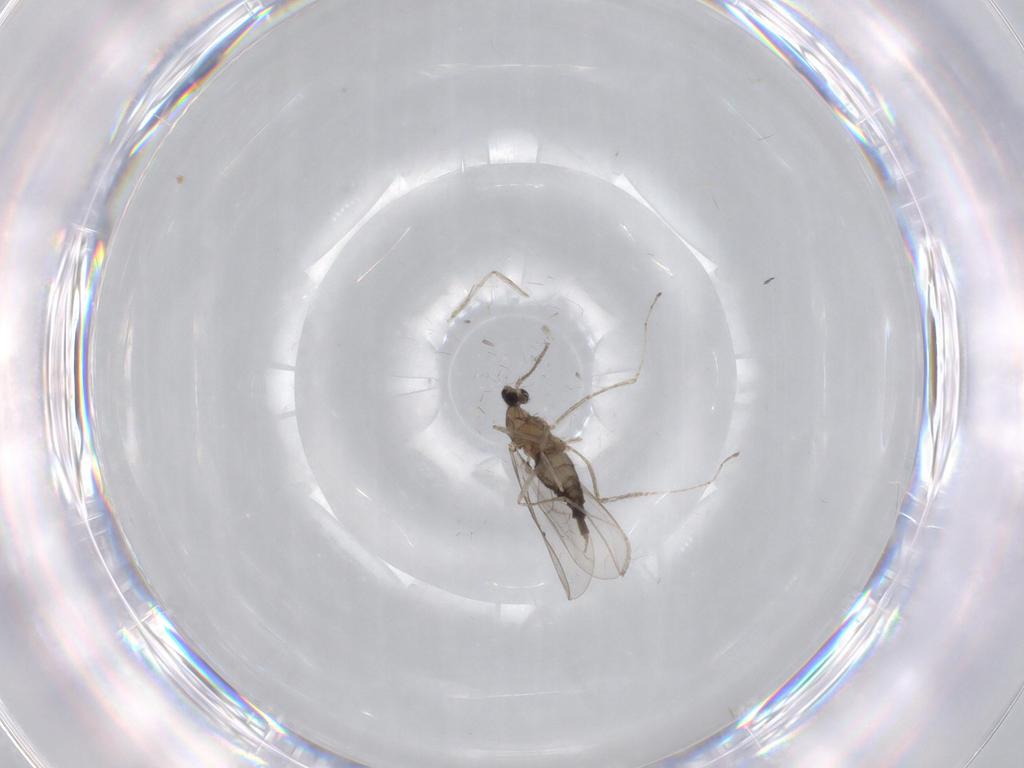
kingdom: Animalia
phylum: Arthropoda
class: Insecta
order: Diptera
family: Cecidomyiidae
